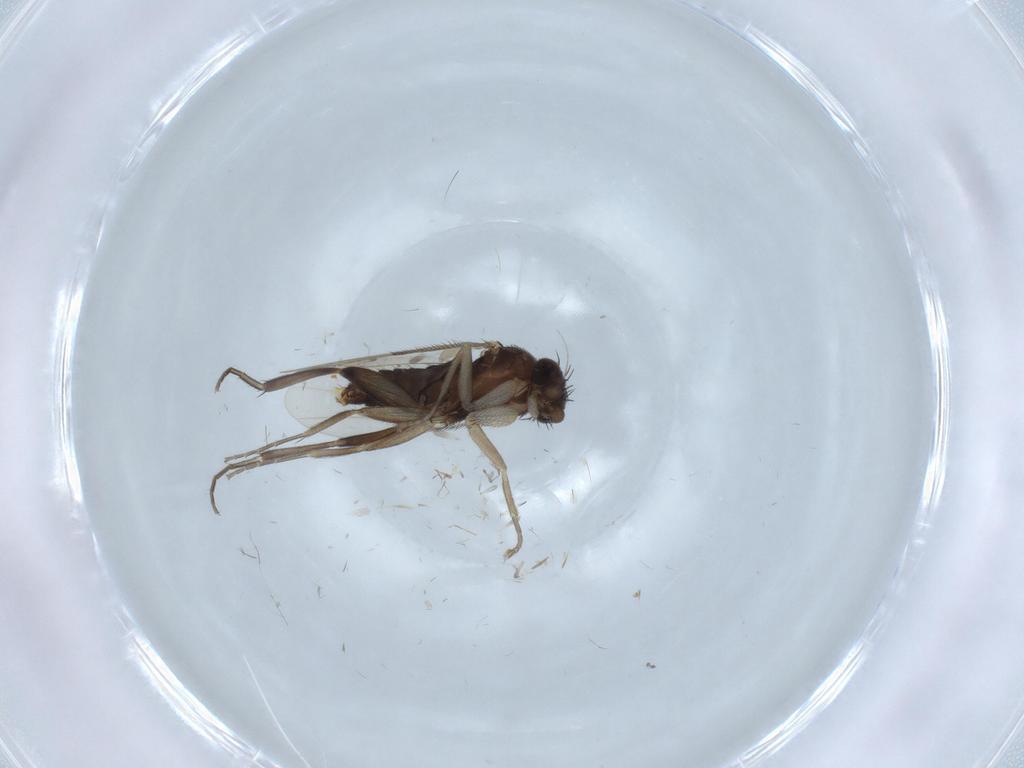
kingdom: Animalia
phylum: Arthropoda
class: Insecta
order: Diptera
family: Chironomidae
